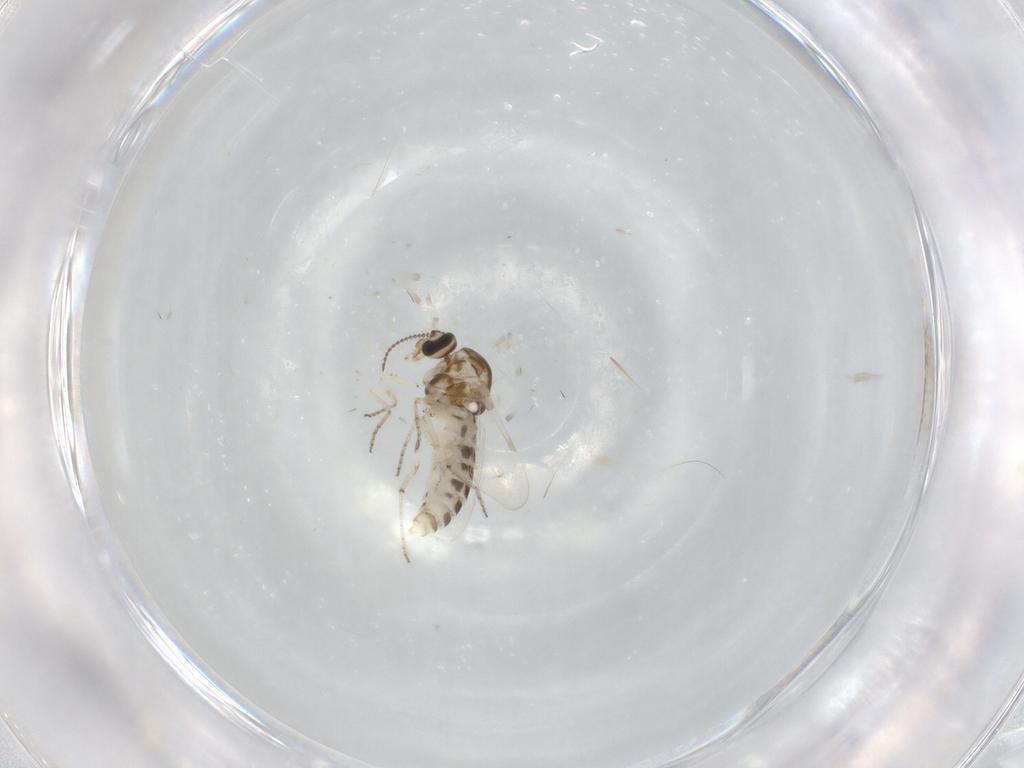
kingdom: Animalia
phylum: Arthropoda
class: Insecta
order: Diptera
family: Ceratopogonidae
